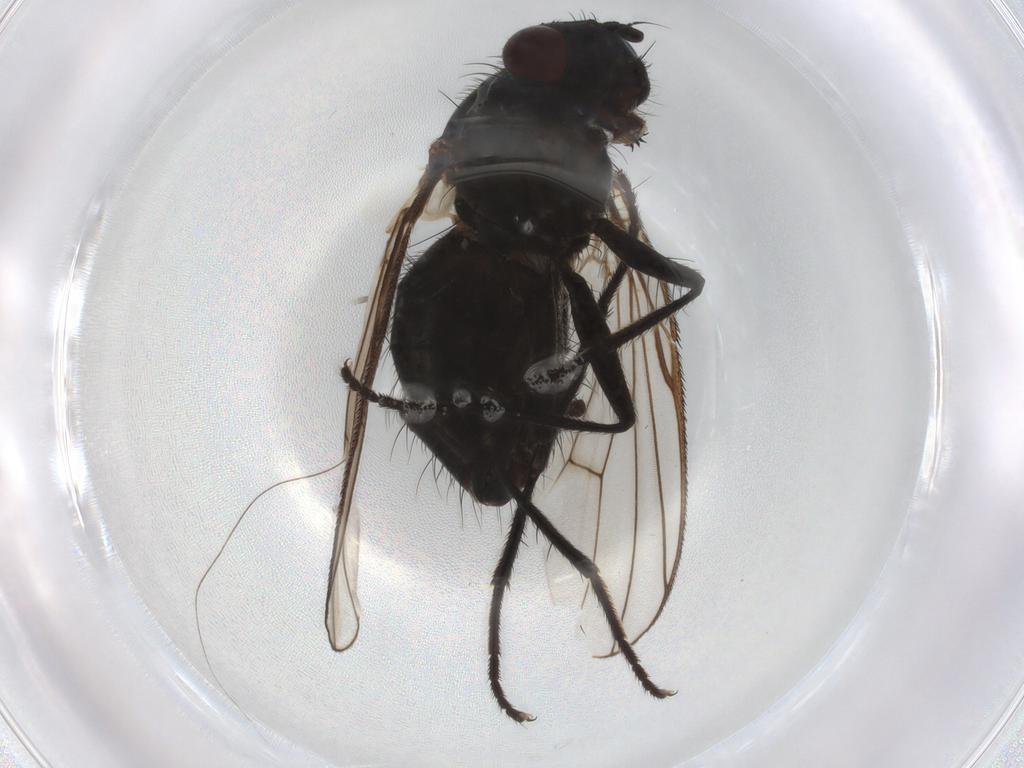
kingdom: Animalia
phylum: Arthropoda
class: Insecta
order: Diptera
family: Muscidae
